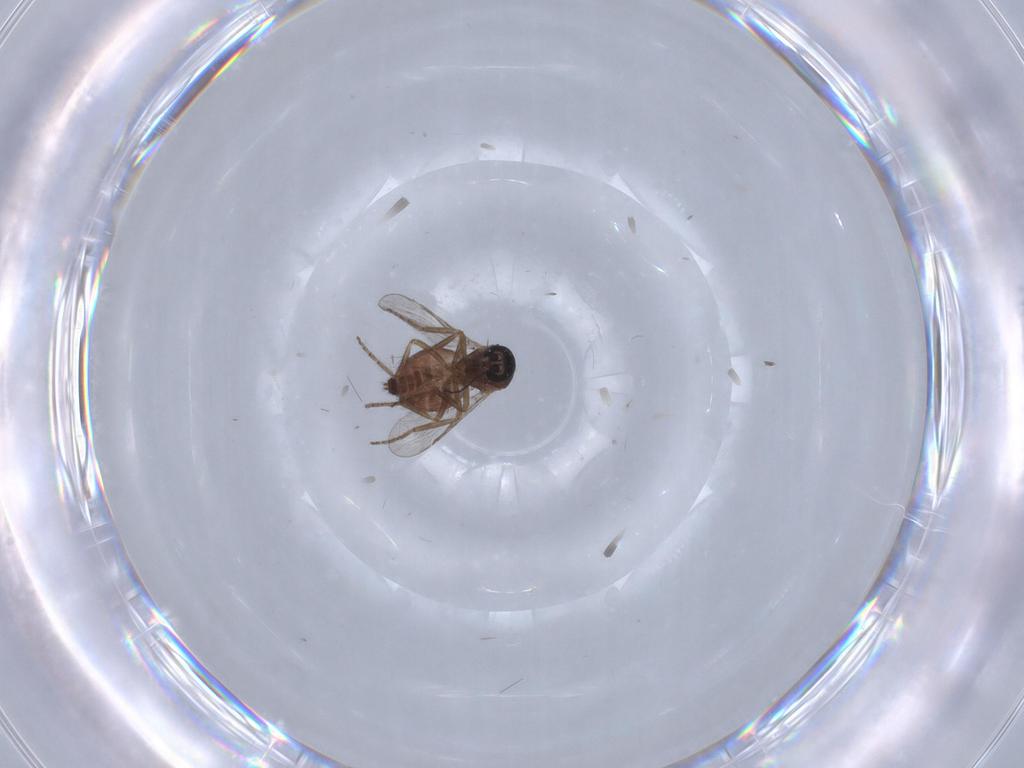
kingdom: Animalia
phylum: Arthropoda
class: Insecta
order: Diptera
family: Chironomidae
